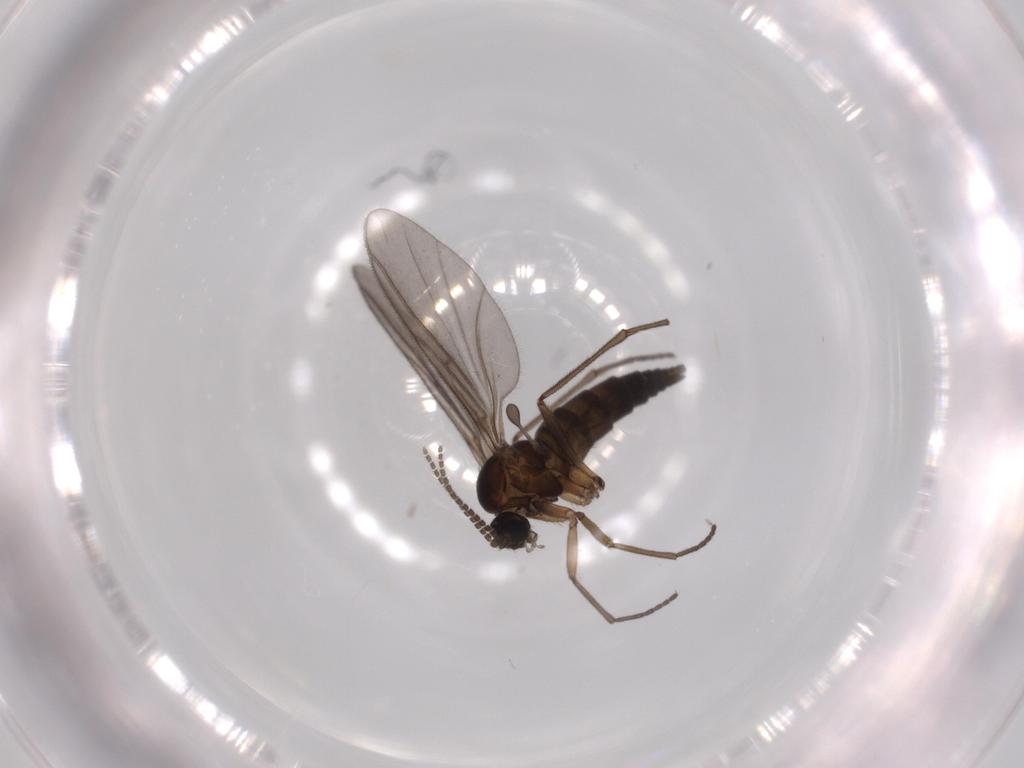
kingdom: Animalia
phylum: Arthropoda
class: Insecta
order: Diptera
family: Sciaridae
